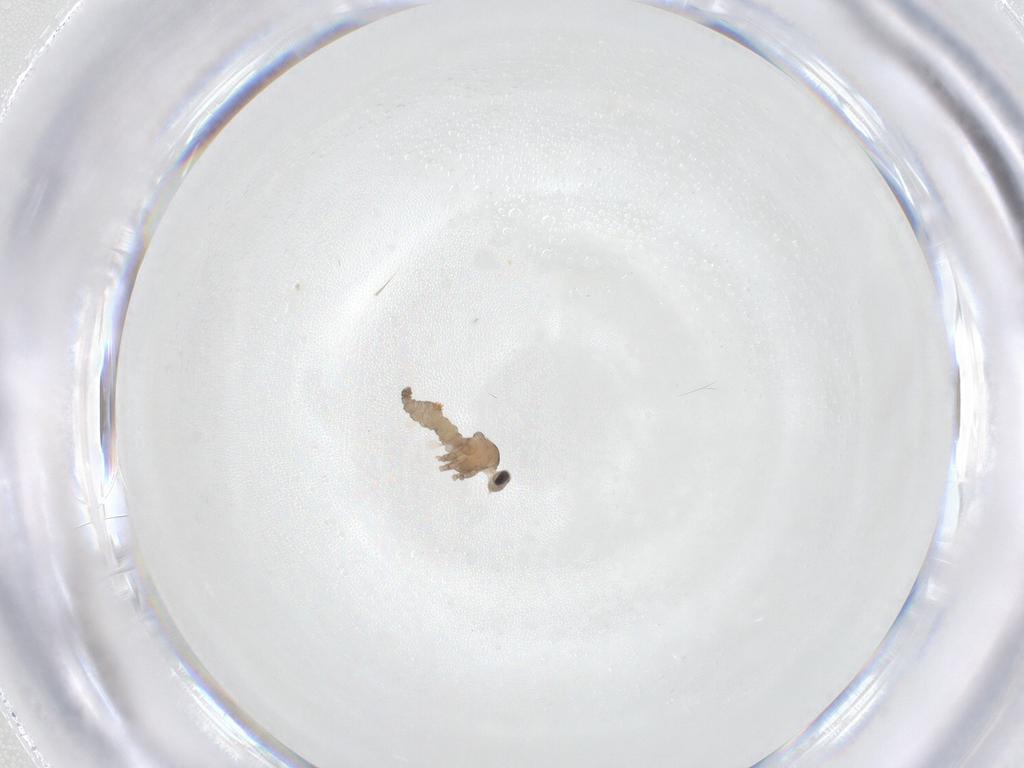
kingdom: Animalia
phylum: Arthropoda
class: Insecta
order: Diptera
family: Sciaridae
